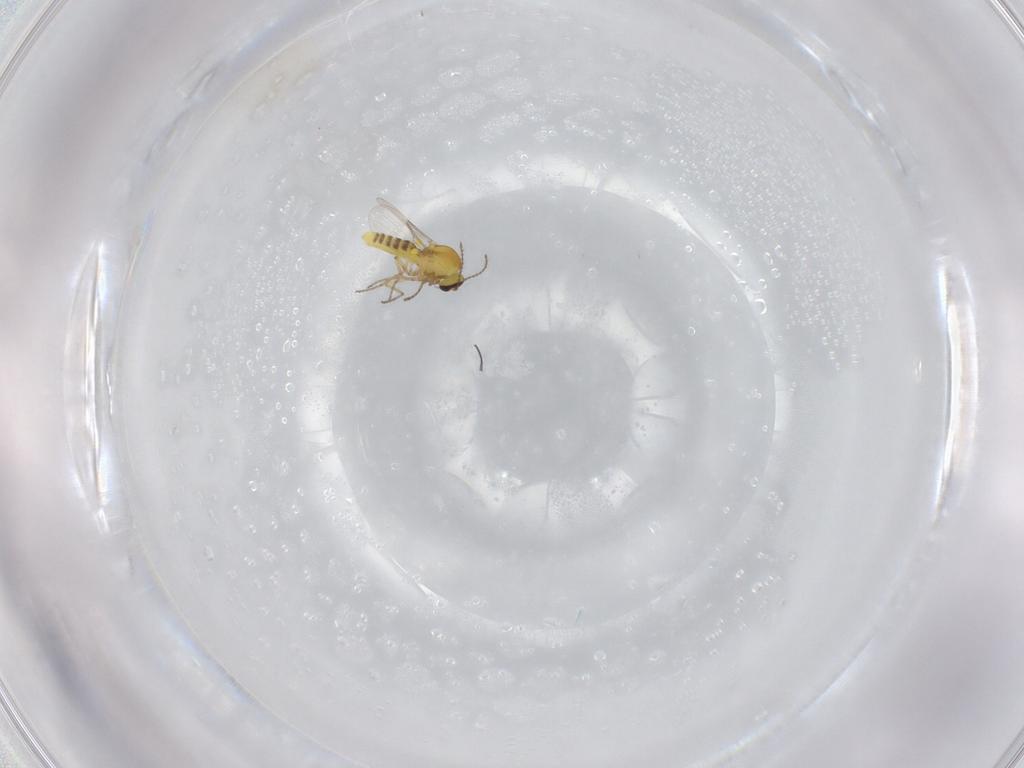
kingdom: Animalia
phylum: Arthropoda
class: Insecta
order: Diptera
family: Ceratopogonidae
